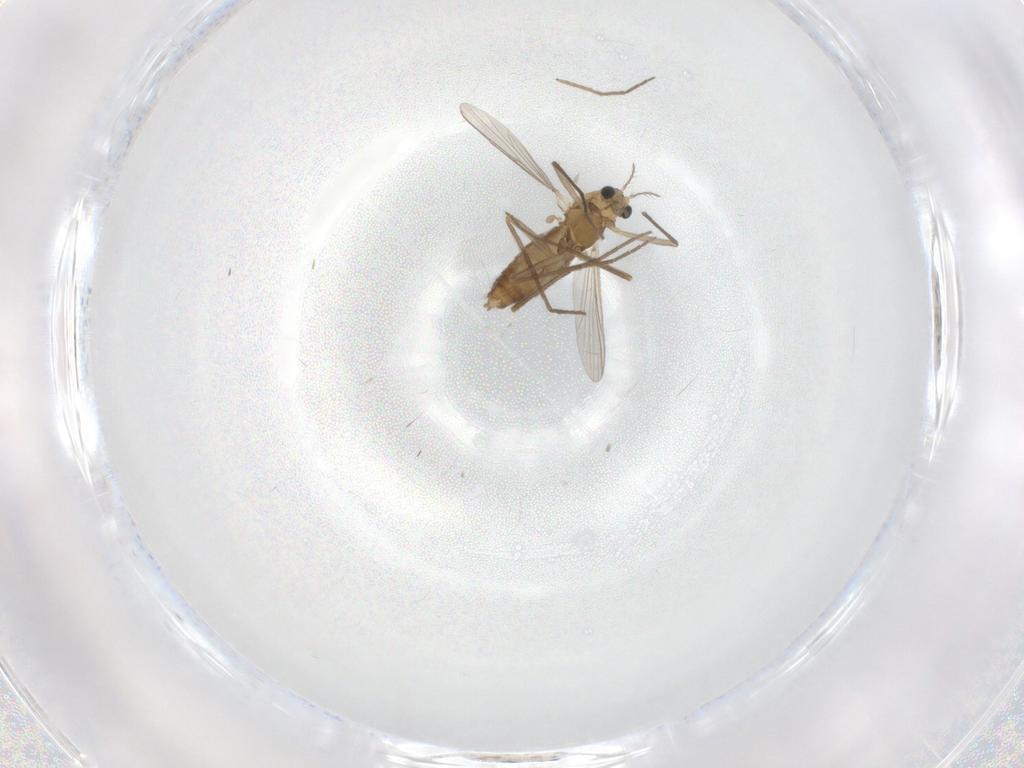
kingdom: Animalia
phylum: Arthropoda
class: Insecta
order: Diptera
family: Chironomidae
